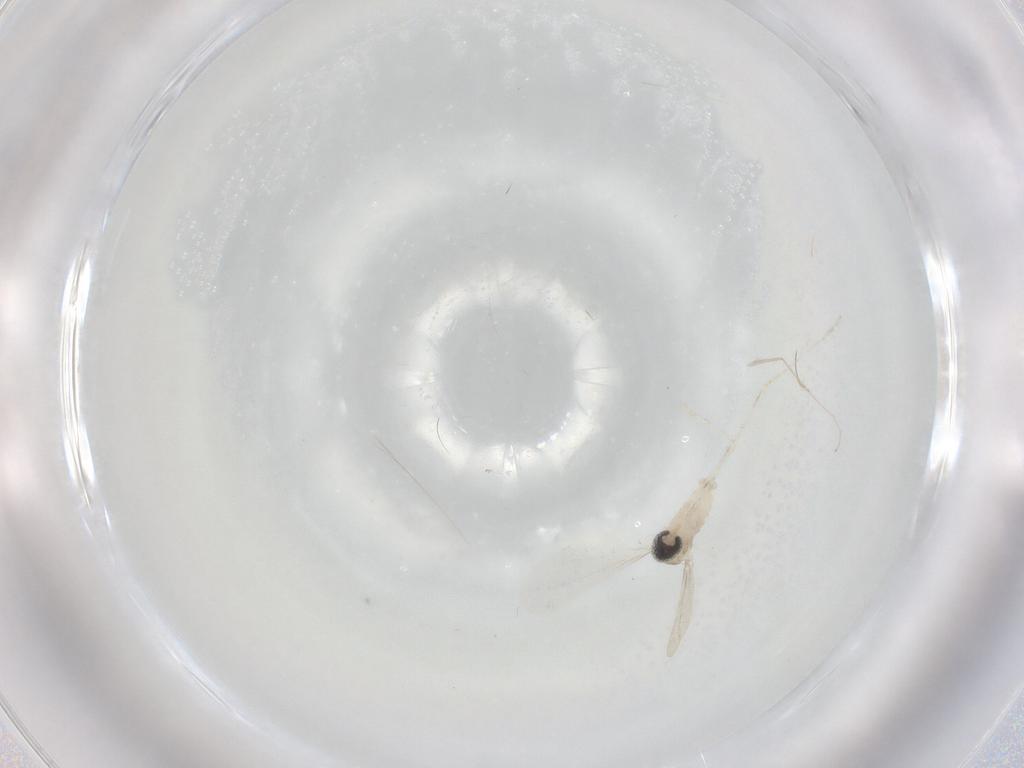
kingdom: Animalia
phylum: Arthropoda
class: Insecta
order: Diptera
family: Cecidomyiidae
